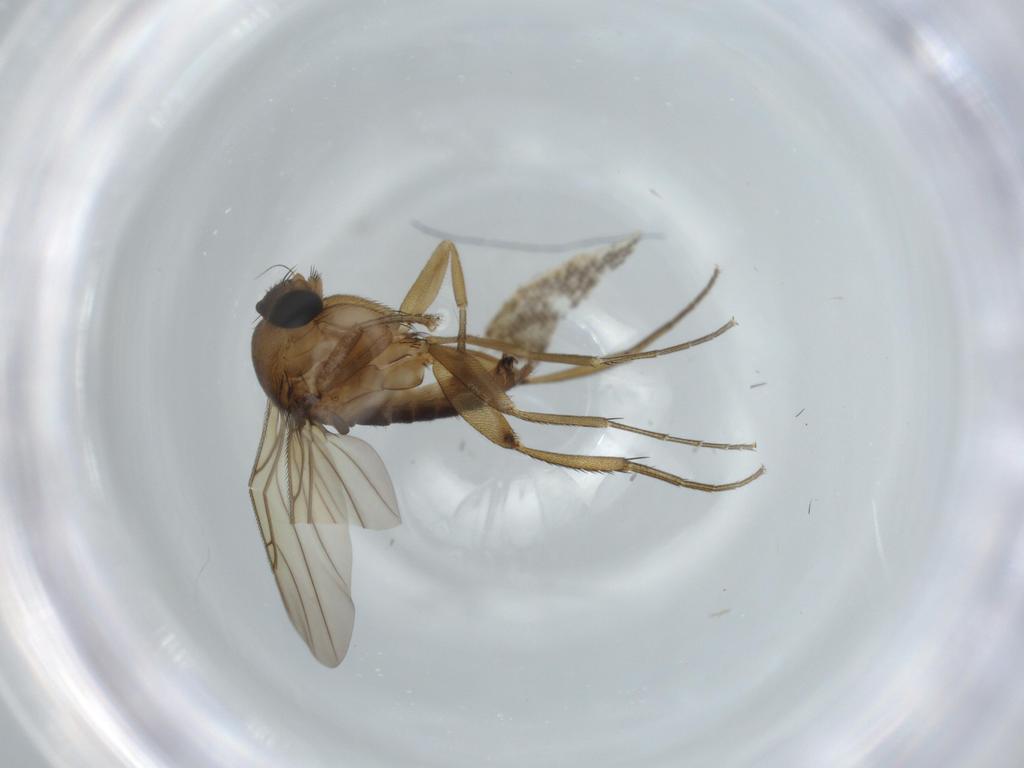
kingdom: Animalia
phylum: Arthropoda
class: Insecta
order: Diptera
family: Phoridae
